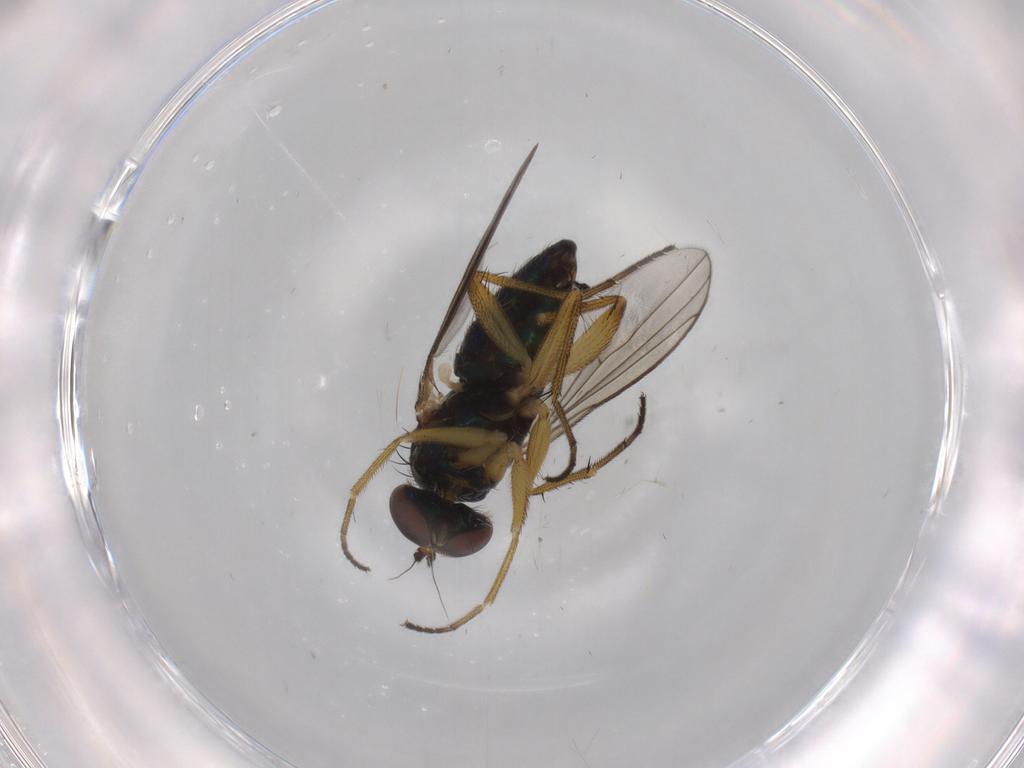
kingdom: Animalia
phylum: Arthropoda
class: Insecta
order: Diptera
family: Dolichopodidae
